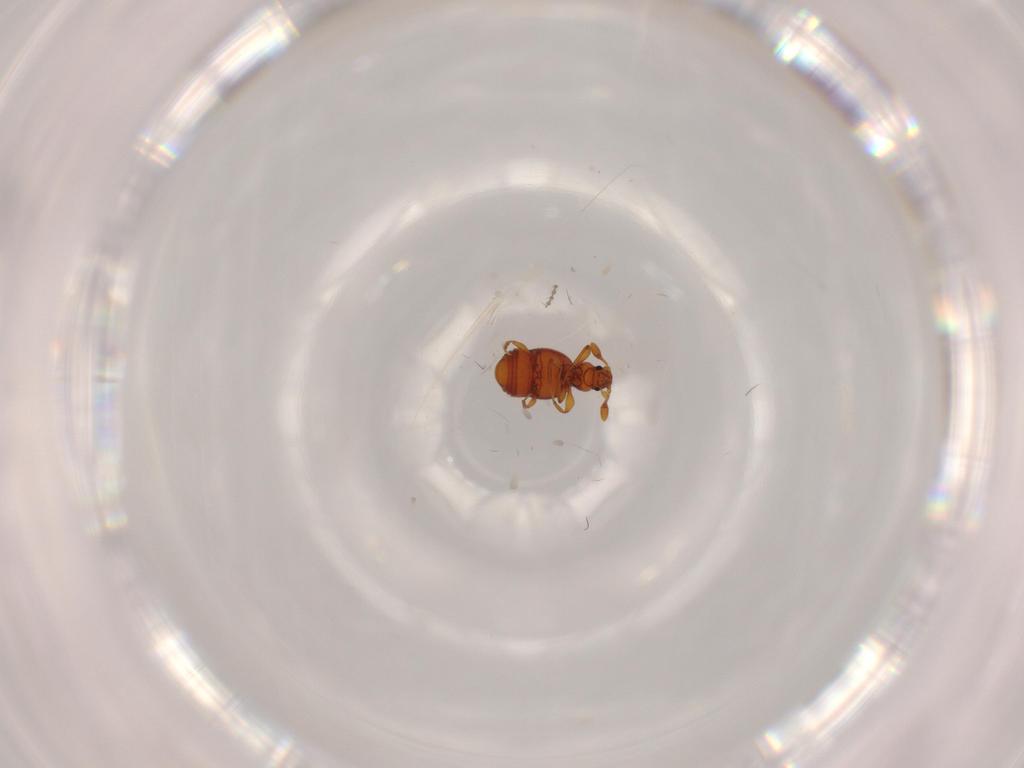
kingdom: Animalia
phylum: Arthropoda
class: Insecta
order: Coleoptera
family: Staphylinidae
